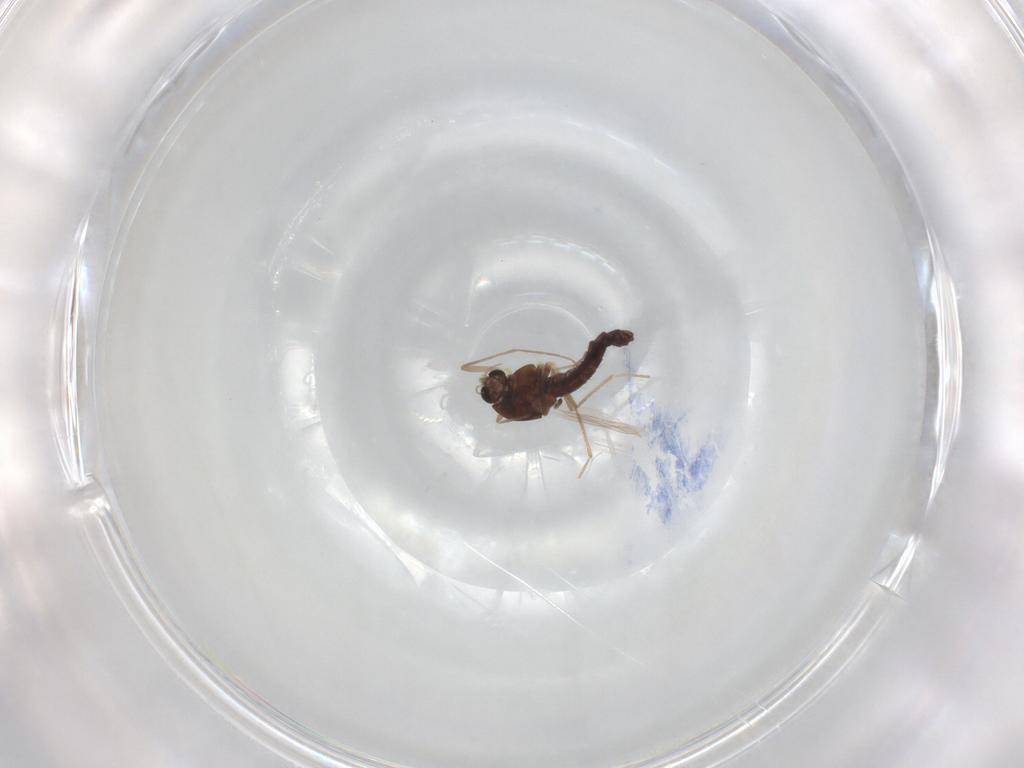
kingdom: Animalia
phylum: Arthropoda
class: Insecta
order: Diptera
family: Chironomidae
